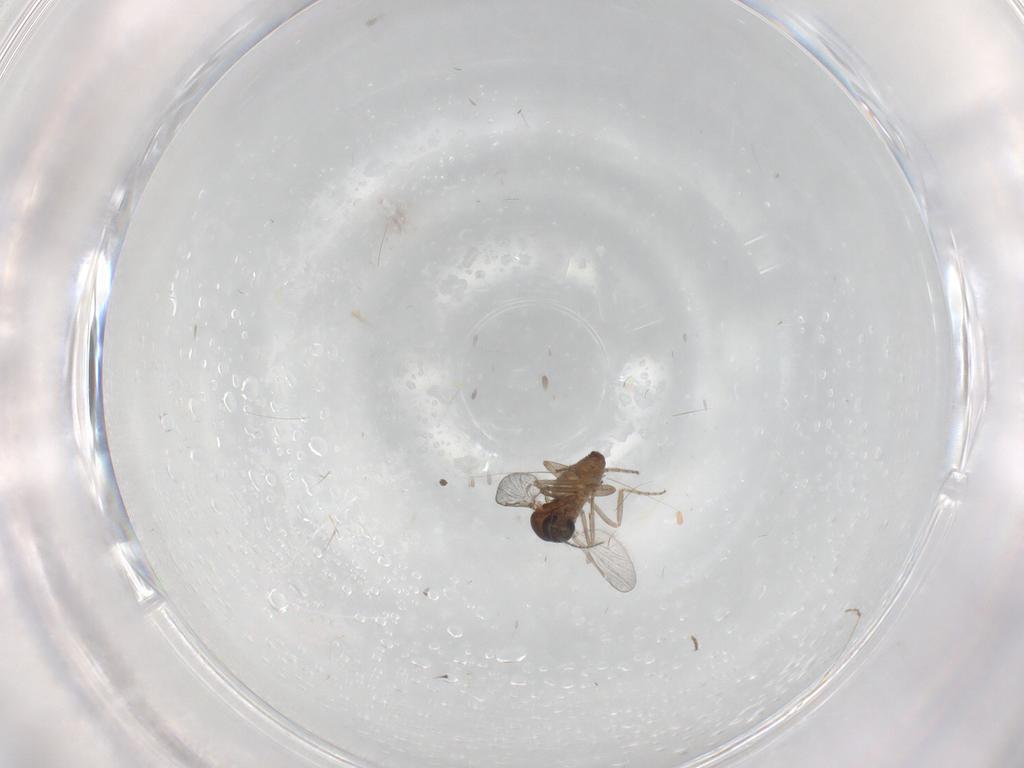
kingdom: Animalia
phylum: Arthropoda
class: Insecta
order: Diptera
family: Ceratopogonidae
